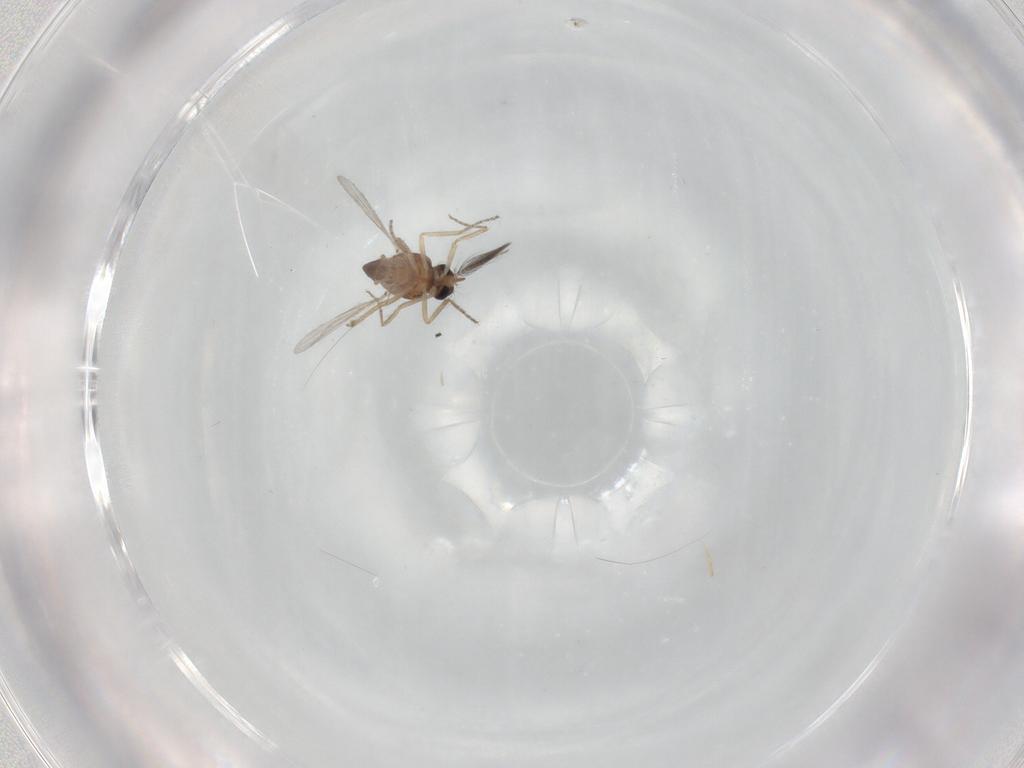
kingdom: Animalia
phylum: Arthropoda
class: Insecta
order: Diptera
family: Ceratopogonidae
